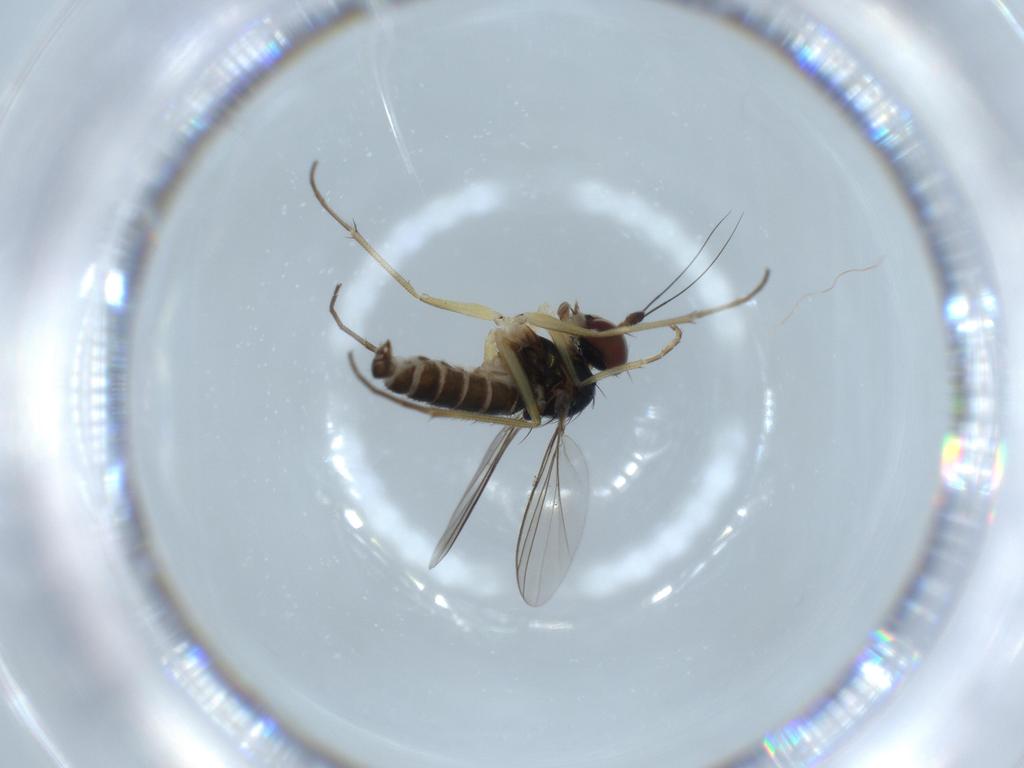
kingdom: Animalia
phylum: Arthropoda
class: Insecta
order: Diptera
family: Dolichopodidae
